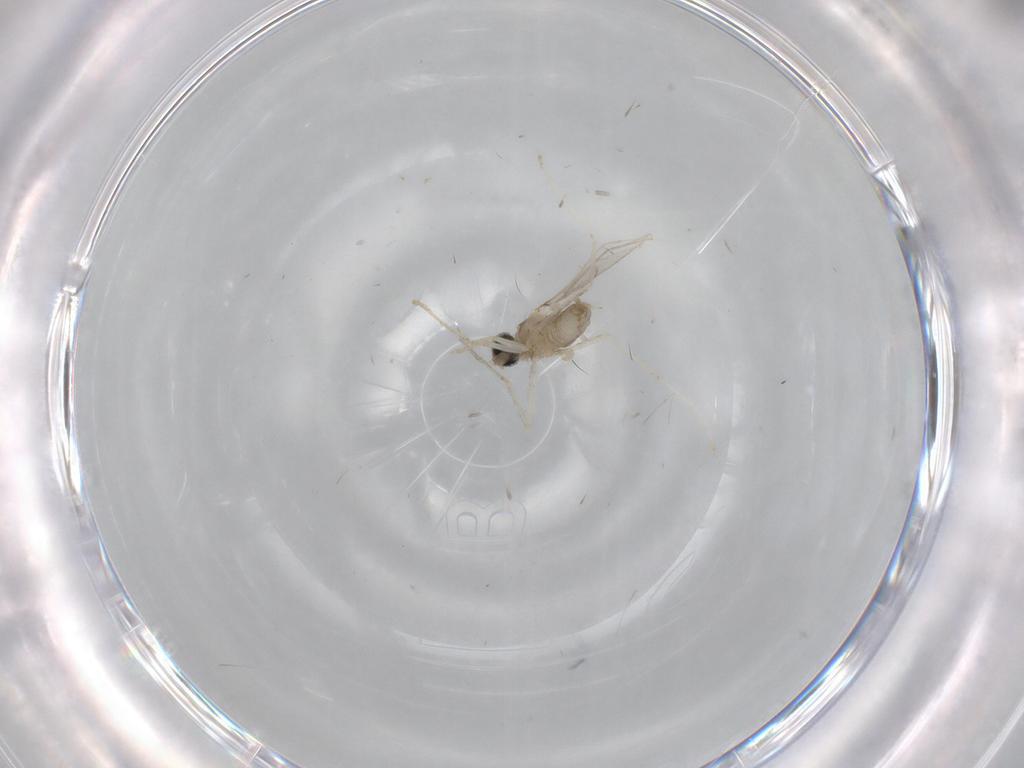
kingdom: Animalia
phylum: Arthropoda
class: Insecta
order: Diptera
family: Cecidomyiidae
